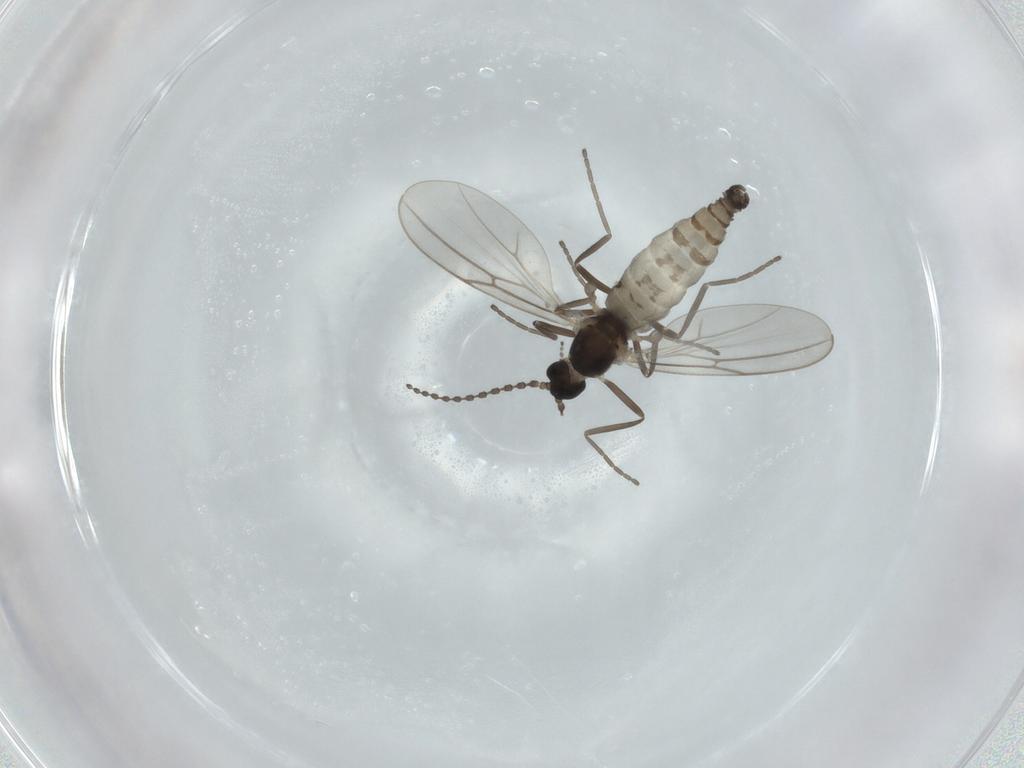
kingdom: Animalia
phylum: Arthropoda
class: Insecta
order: Diptera
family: Cecidomyiidae
